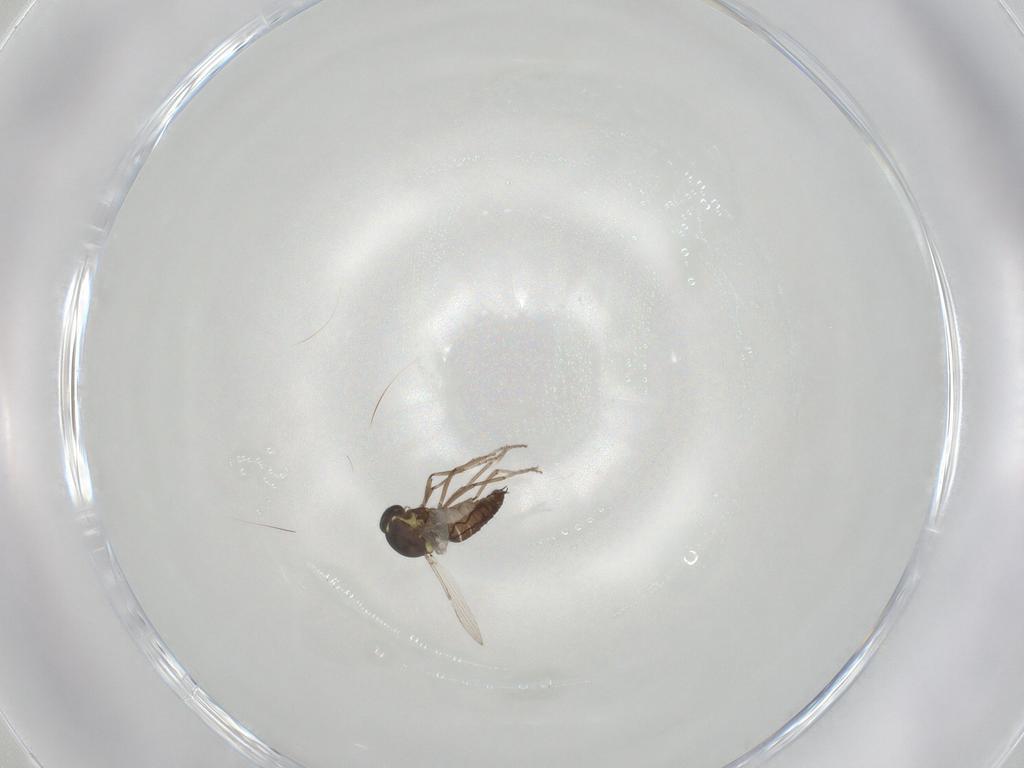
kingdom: Animalia
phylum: Arthropoda
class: Insecta
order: Diptera
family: Ceratopogonidae
